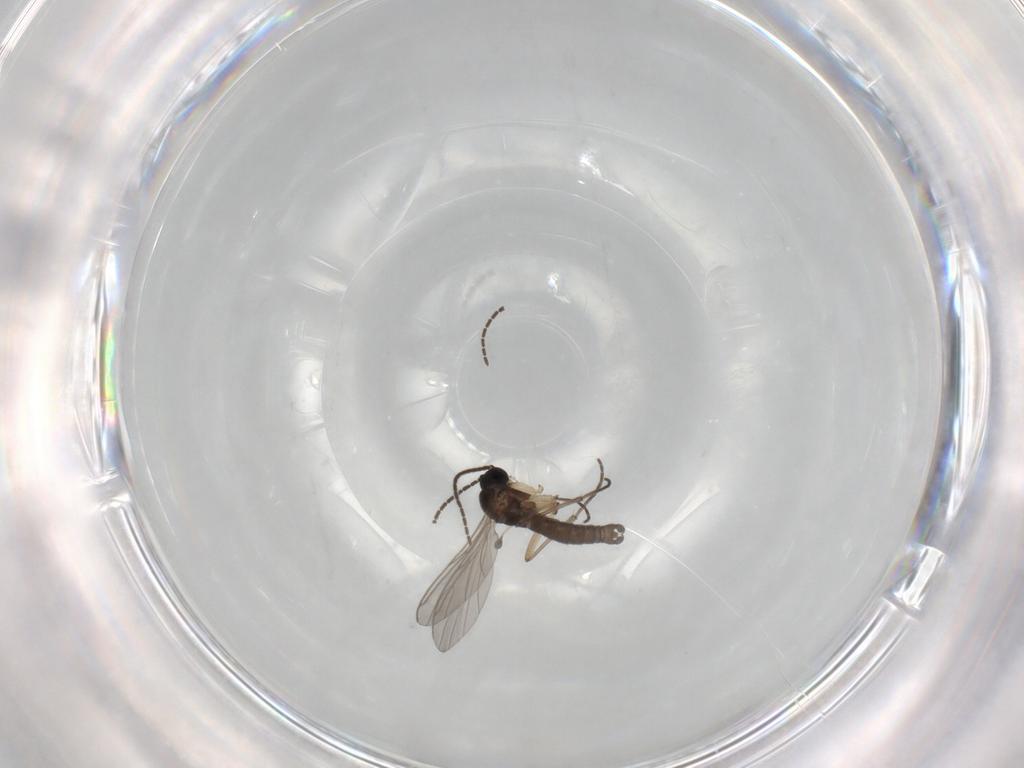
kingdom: Animalia
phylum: Arthropoda
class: Insecta
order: Diptera
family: Sciaridae
